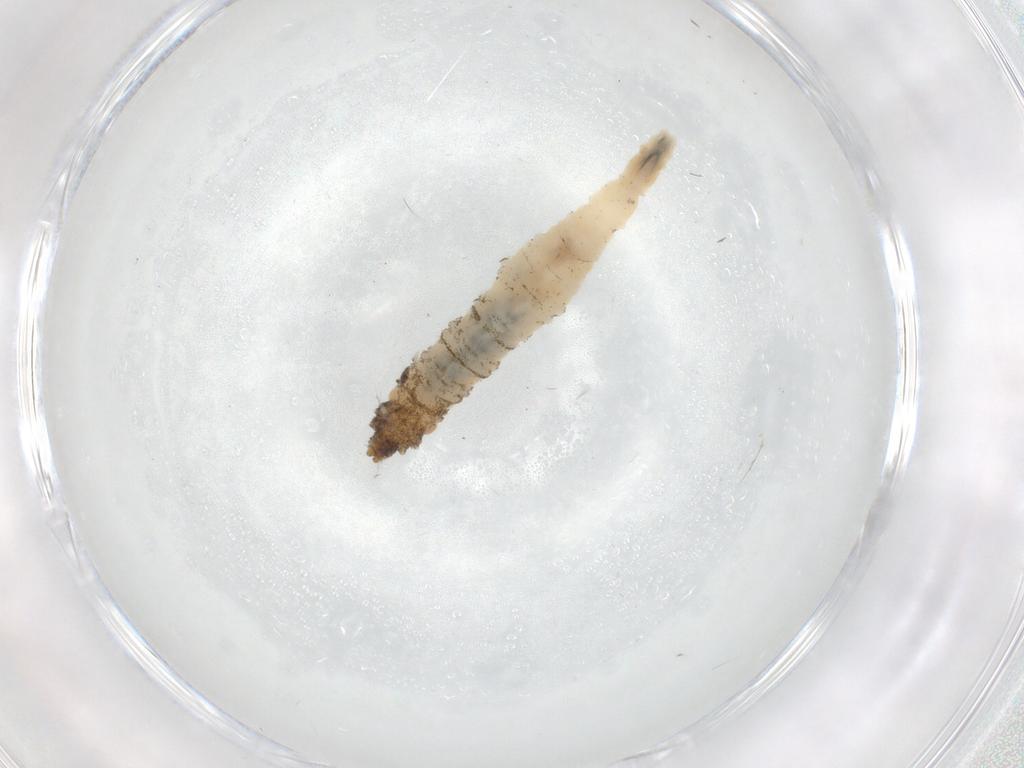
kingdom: Animalia
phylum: Arthropoda
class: Insecta
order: Diptera
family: Chironomidae
